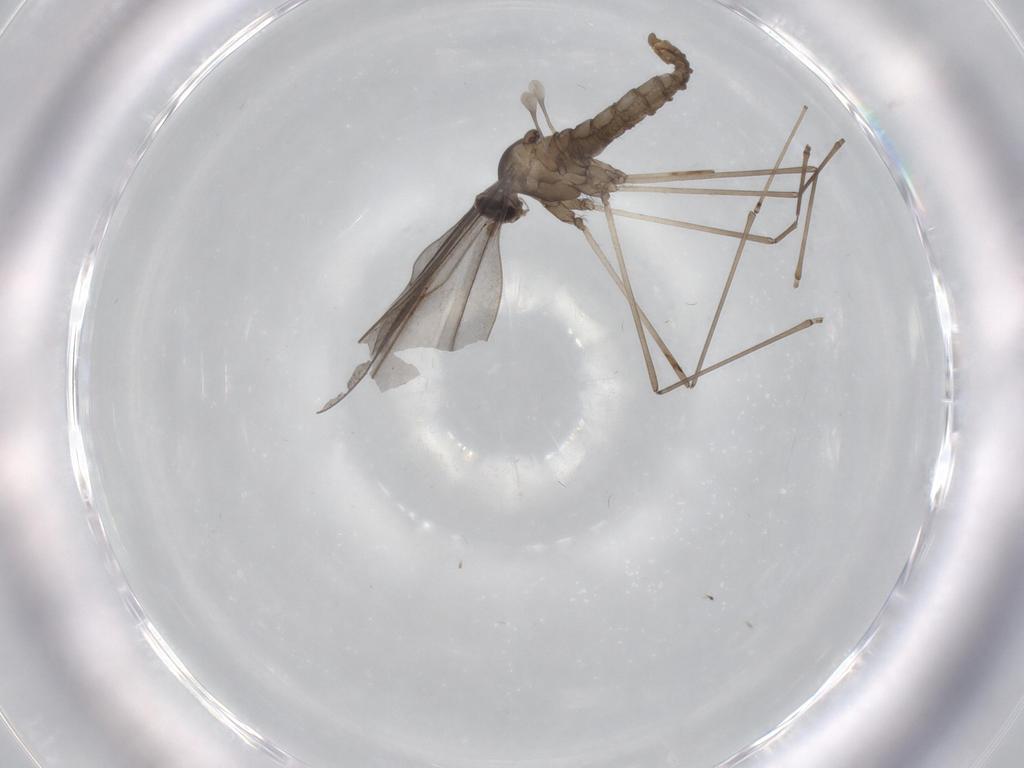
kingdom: Animalia
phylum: Arthropoda
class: Insecta
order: Diptera
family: Cecidomyiidae
